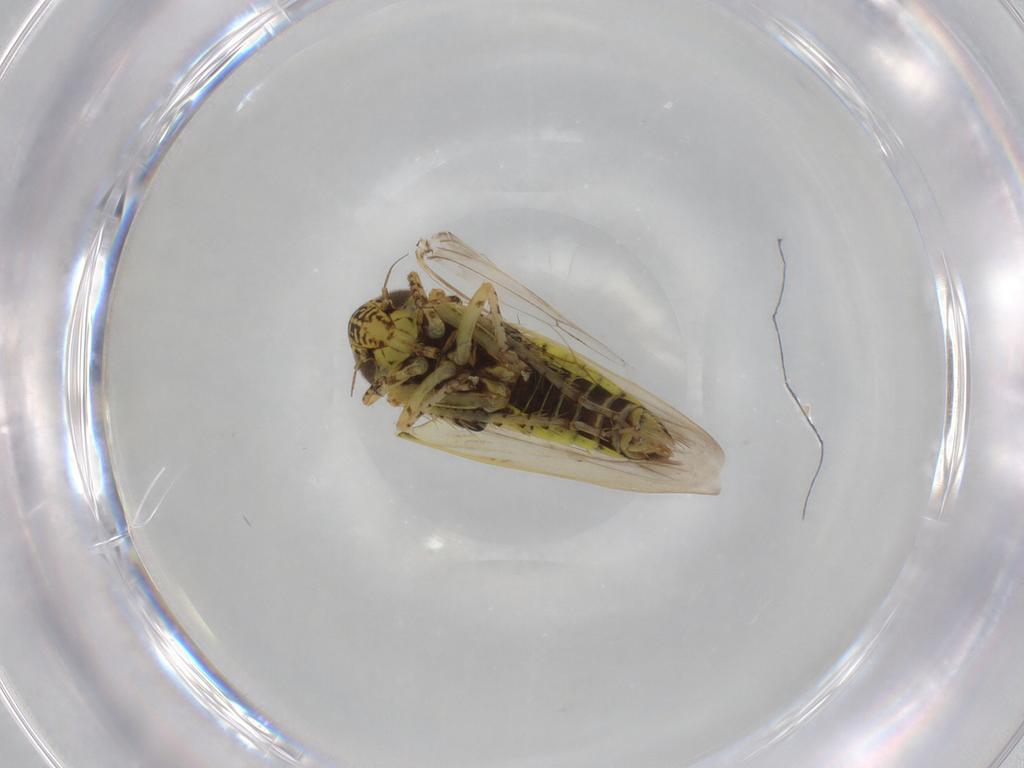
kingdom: Animalia
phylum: Arthropoda
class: Insecta
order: Hemiptera
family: Cicadellidae
